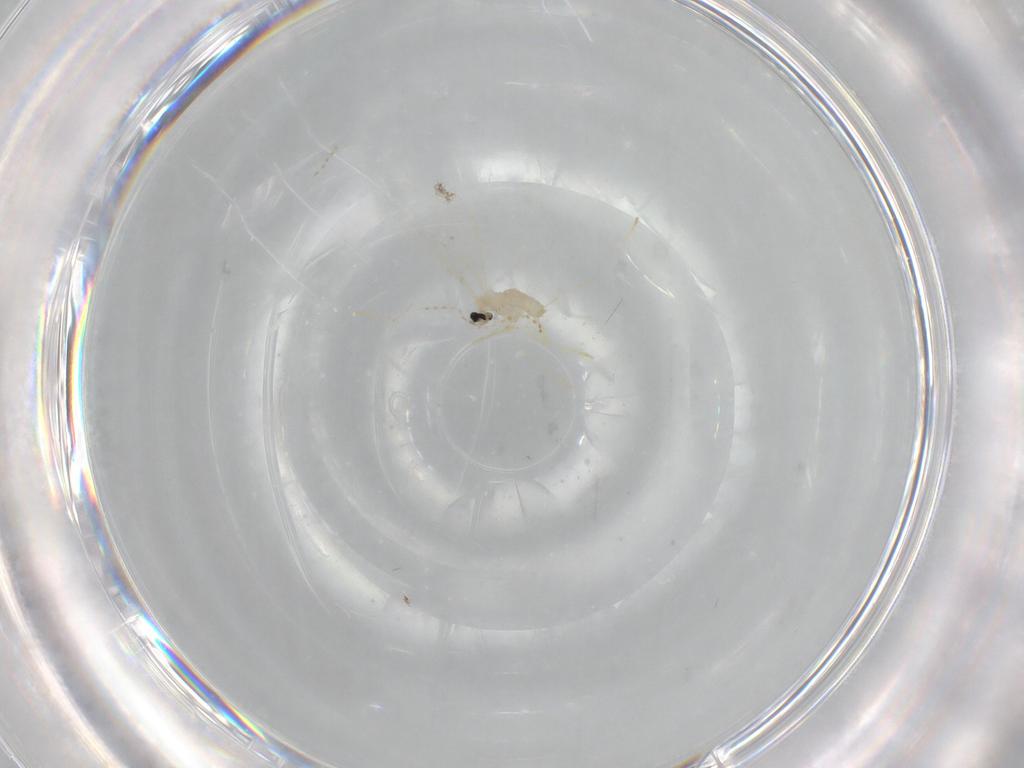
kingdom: Animalia
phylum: Arthropoda
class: Insecta
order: Diptera
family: Cecidomyiidae
